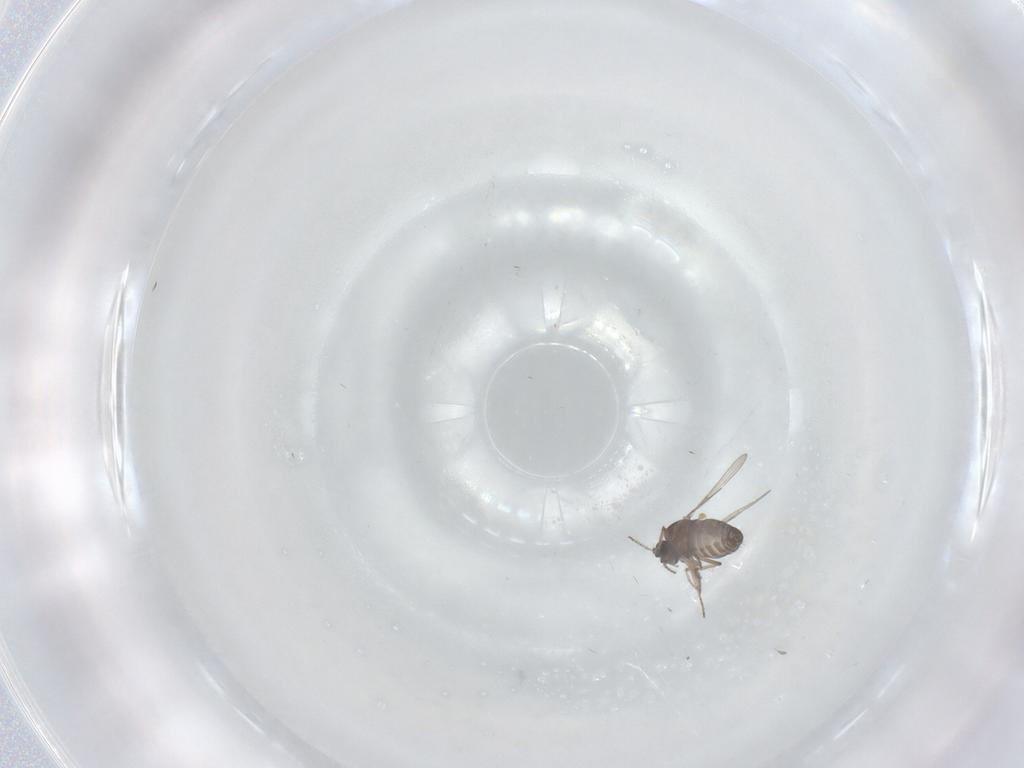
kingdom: Animalia
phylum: Arthropoda
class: Insecta
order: Diptera
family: Ceratopogonidae
